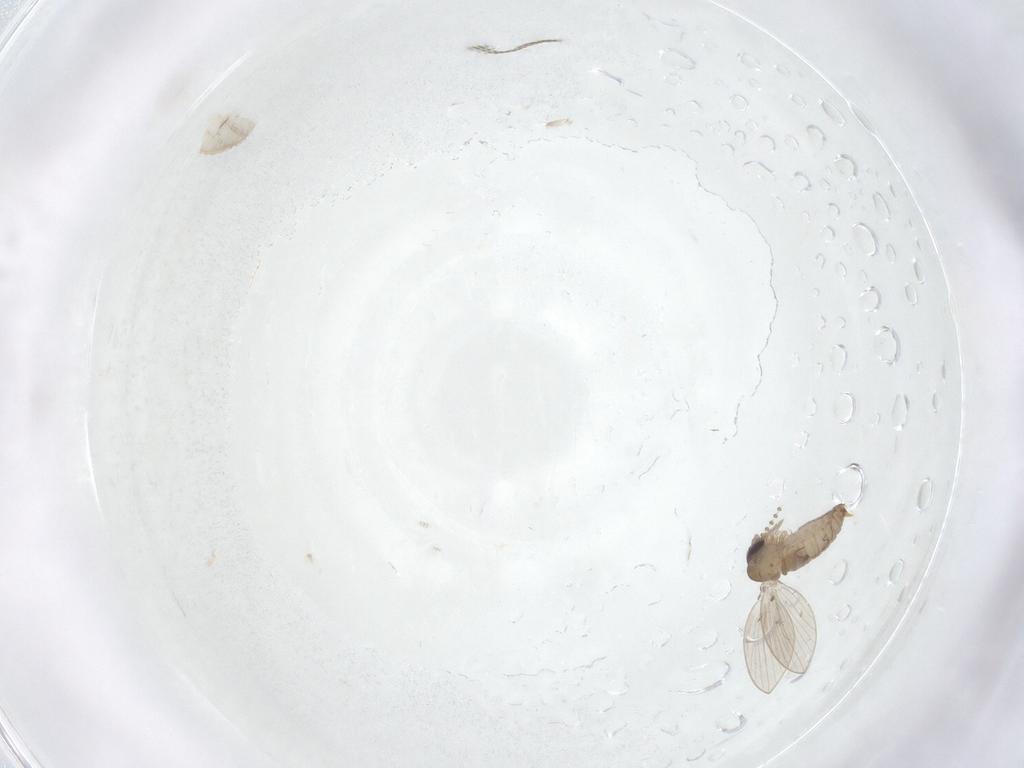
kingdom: Animalia
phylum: Arthropoda
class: Insecta
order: Diptera
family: Psychodidae
